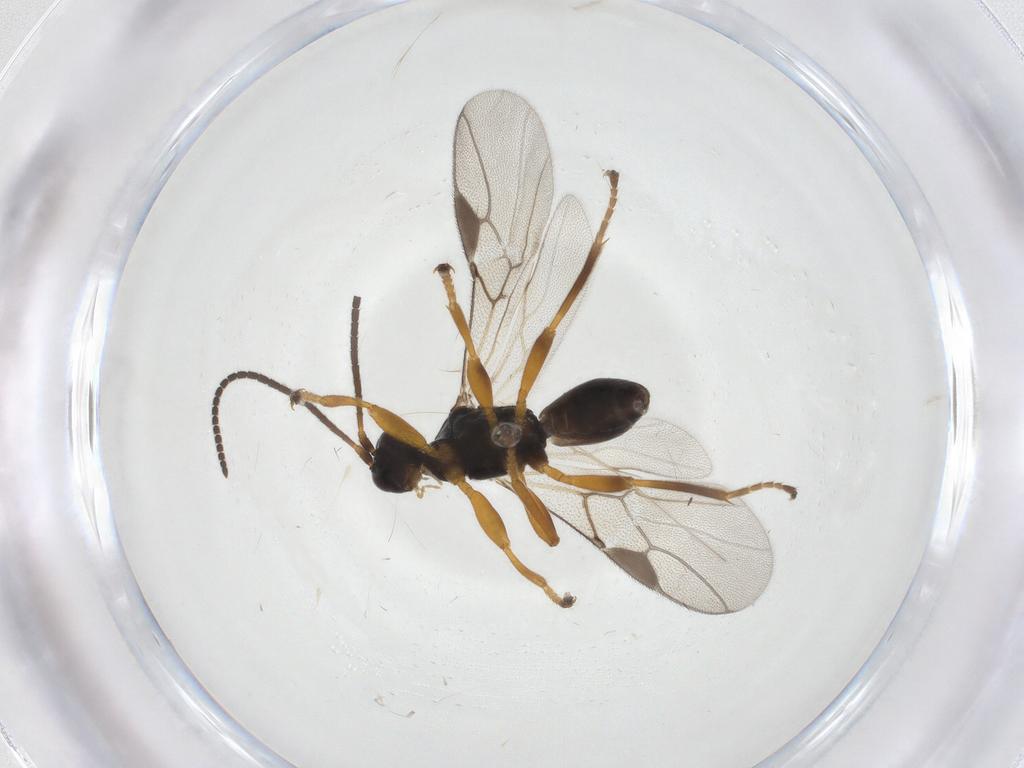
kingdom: Animalia
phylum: Arthropoda
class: Insecta
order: Hymenoptera
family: Braconidae
